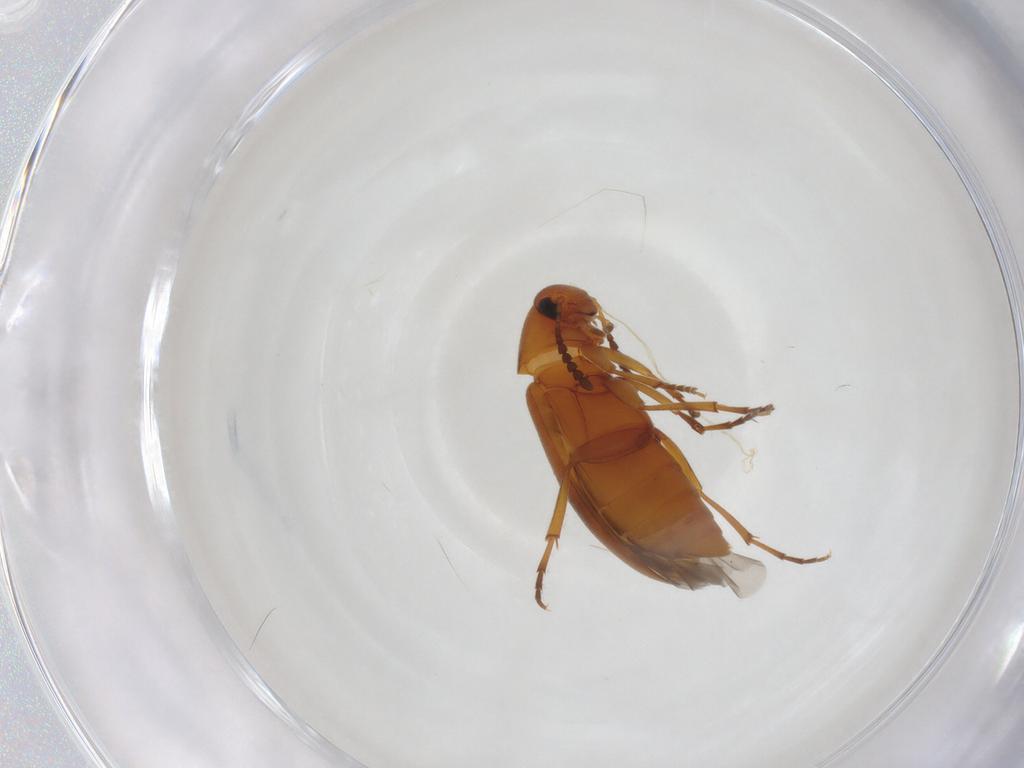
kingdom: Animalia
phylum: Arthropoda
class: Insecta
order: Coleoptera
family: Scraptiidae
